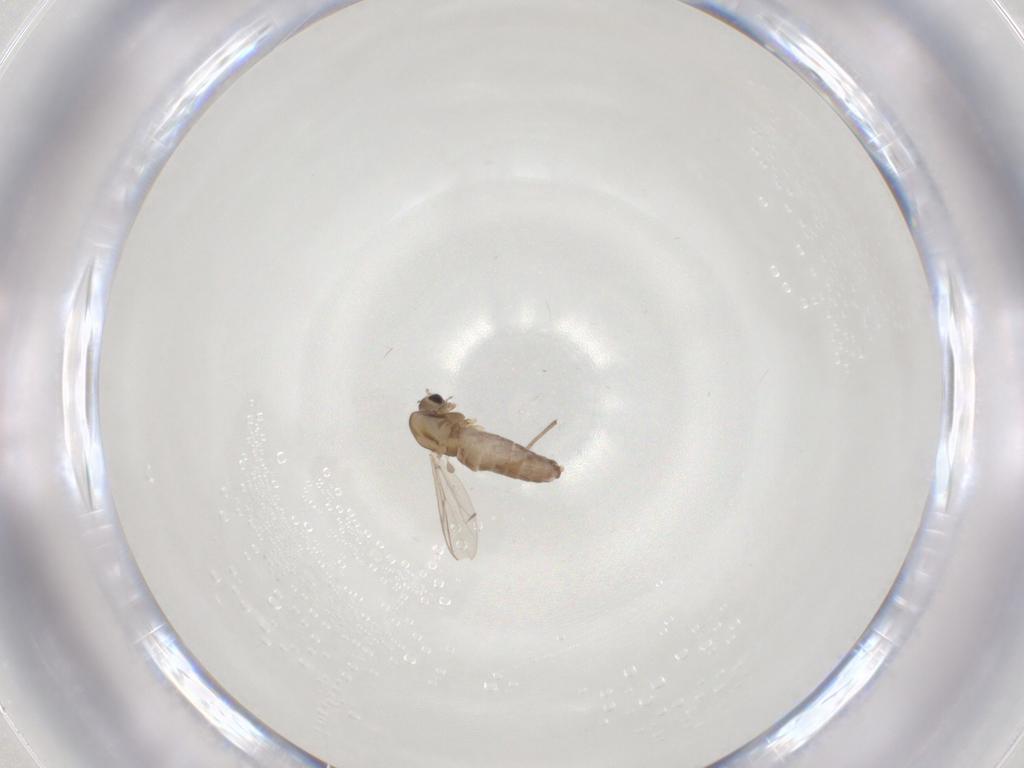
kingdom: Animalia
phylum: Arthropoda
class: Insecta
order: Diptera
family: Chironomidae
